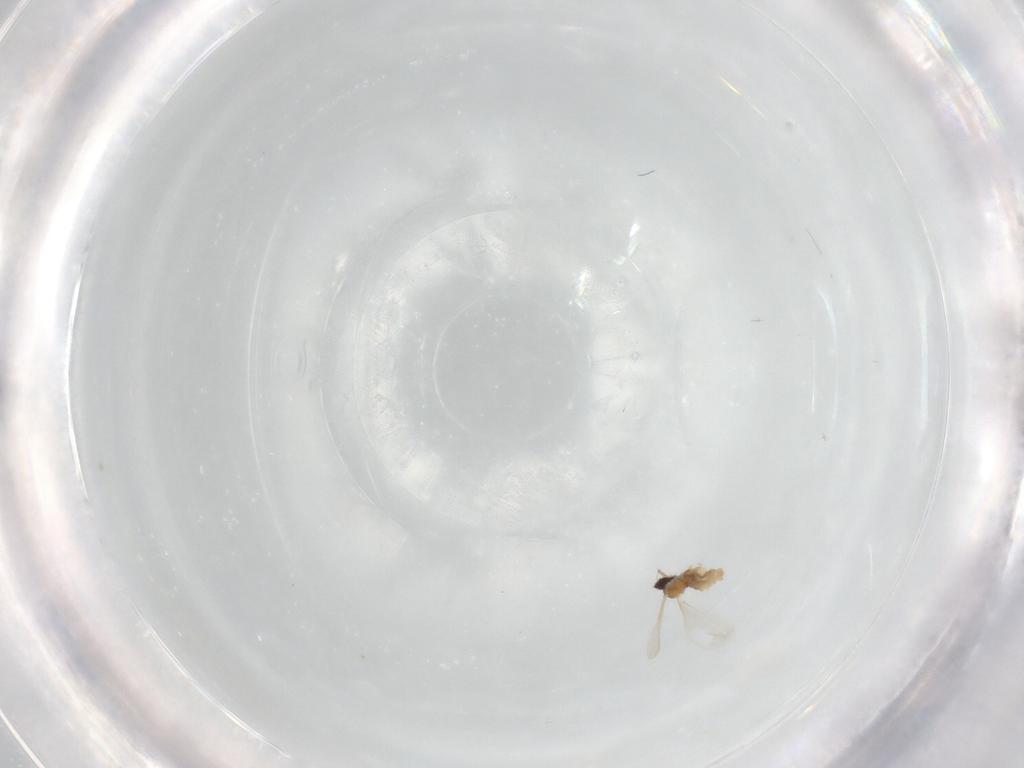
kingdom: Animalia
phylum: Arthropoda
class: Insecta
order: Diptera
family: Cecidomyiidae
